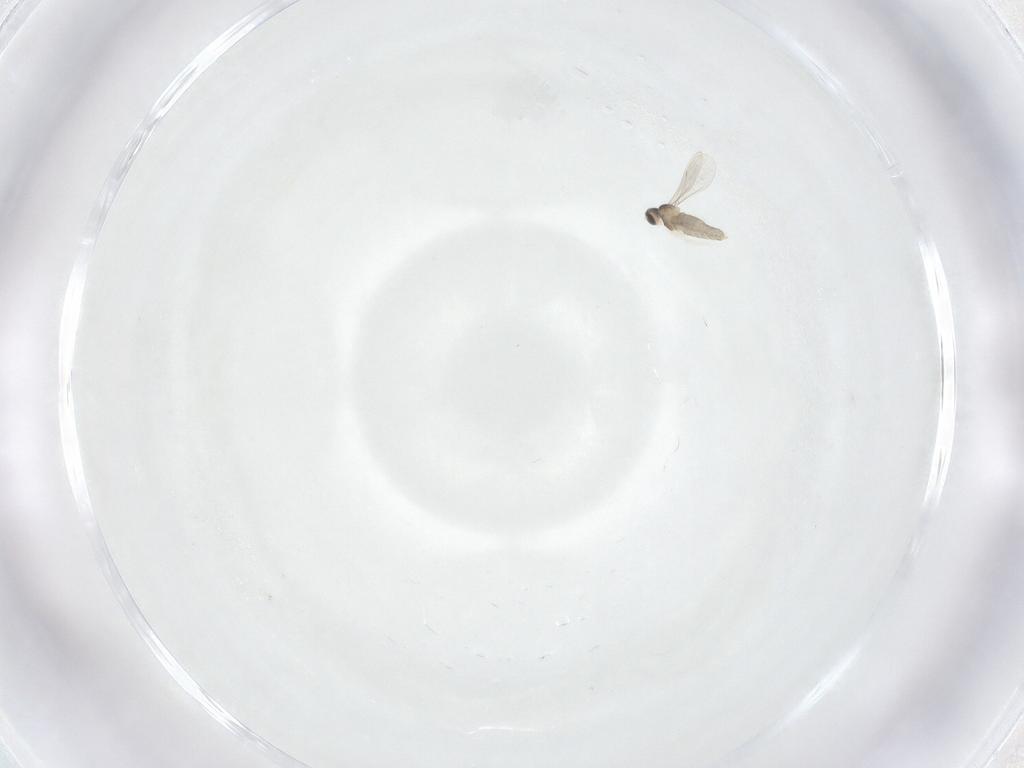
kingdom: Animalia
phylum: Arthropoda
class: Insecta
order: Diptera
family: Cecidomyiidae
